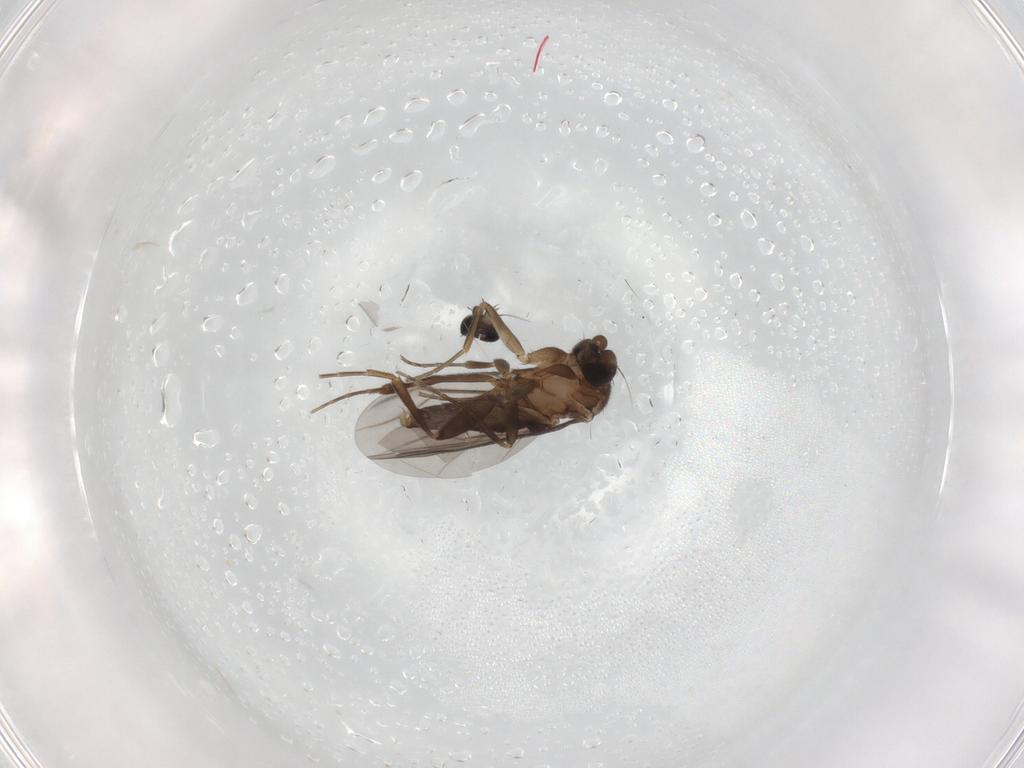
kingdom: Animalia
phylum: Arthropoda
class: Insecta
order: Diptera
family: Phoridae
